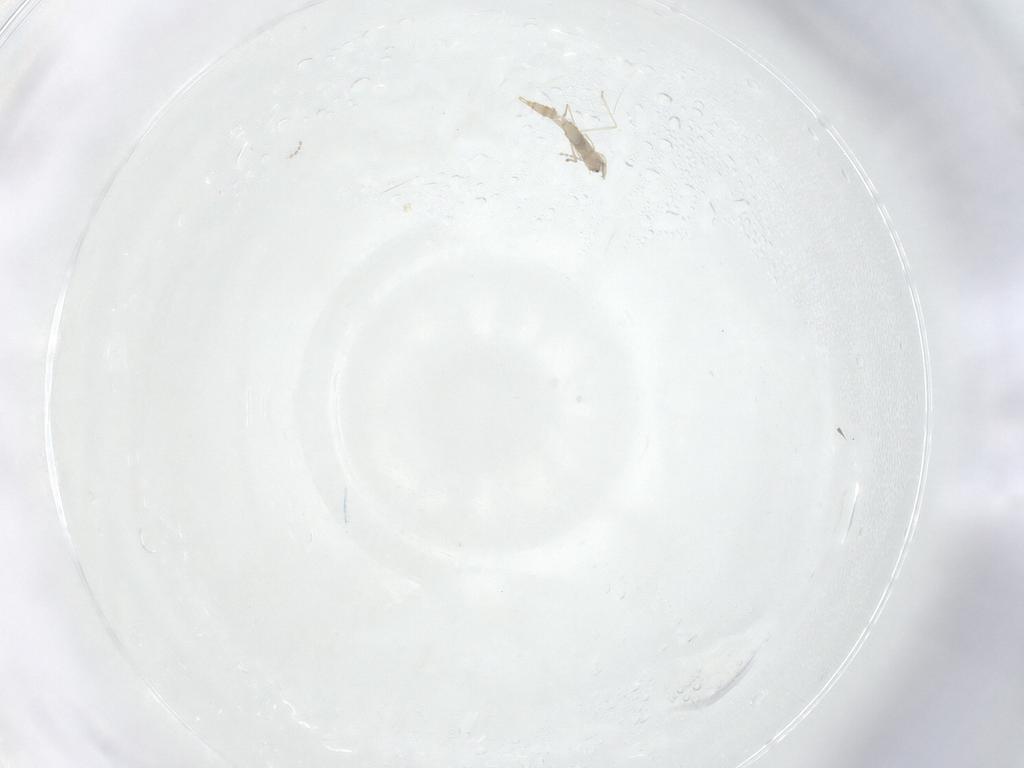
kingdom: Animalia
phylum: Arthropoda
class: Insecta
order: Diptera
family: Cecidomyiidae
